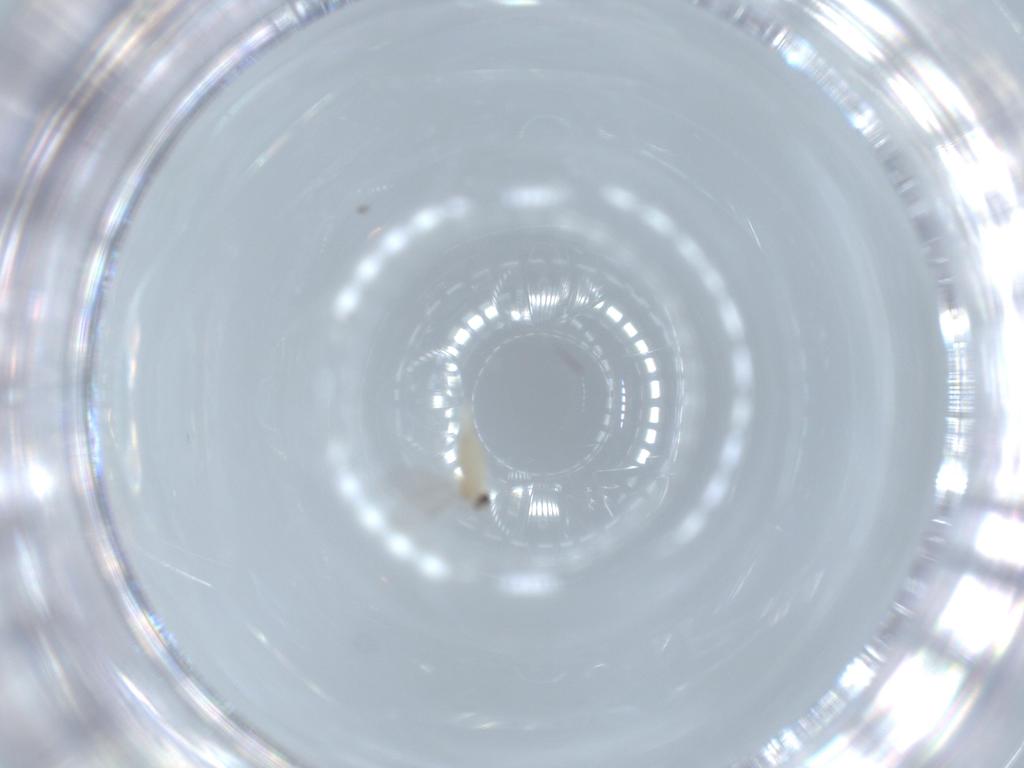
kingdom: Animalia
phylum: Arthropoda
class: Insecta
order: Diptera
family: Cecidomyiidae
